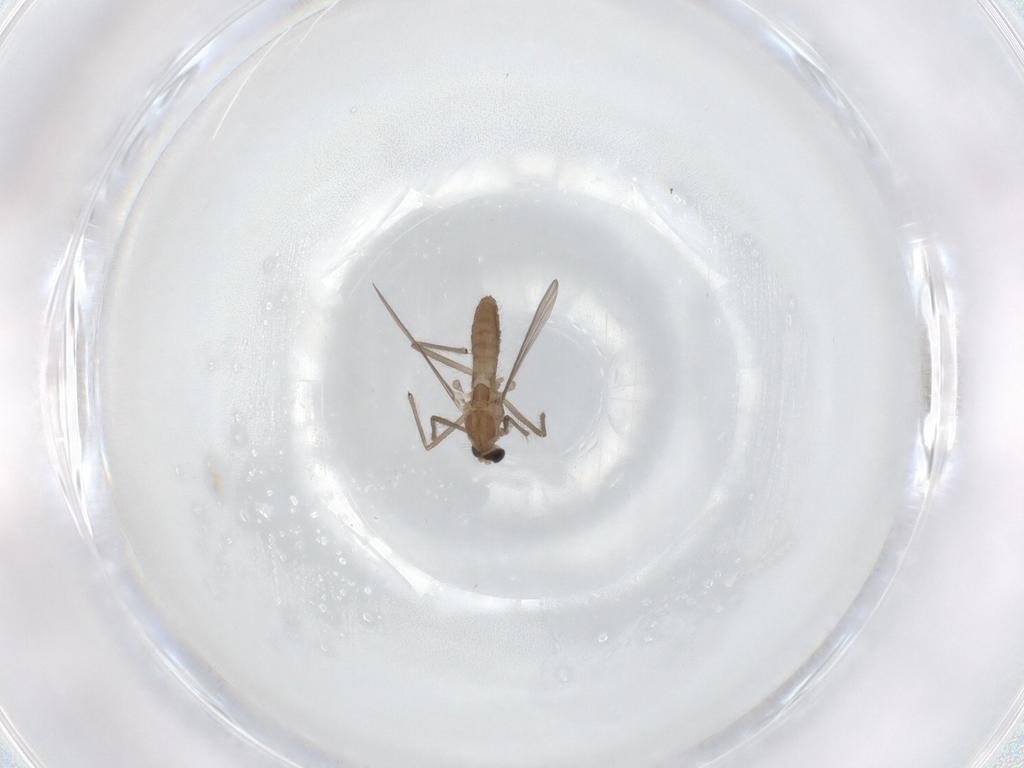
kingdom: Animalia
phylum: Arthropoda
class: Insecta
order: Diptera
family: Chironomidae
